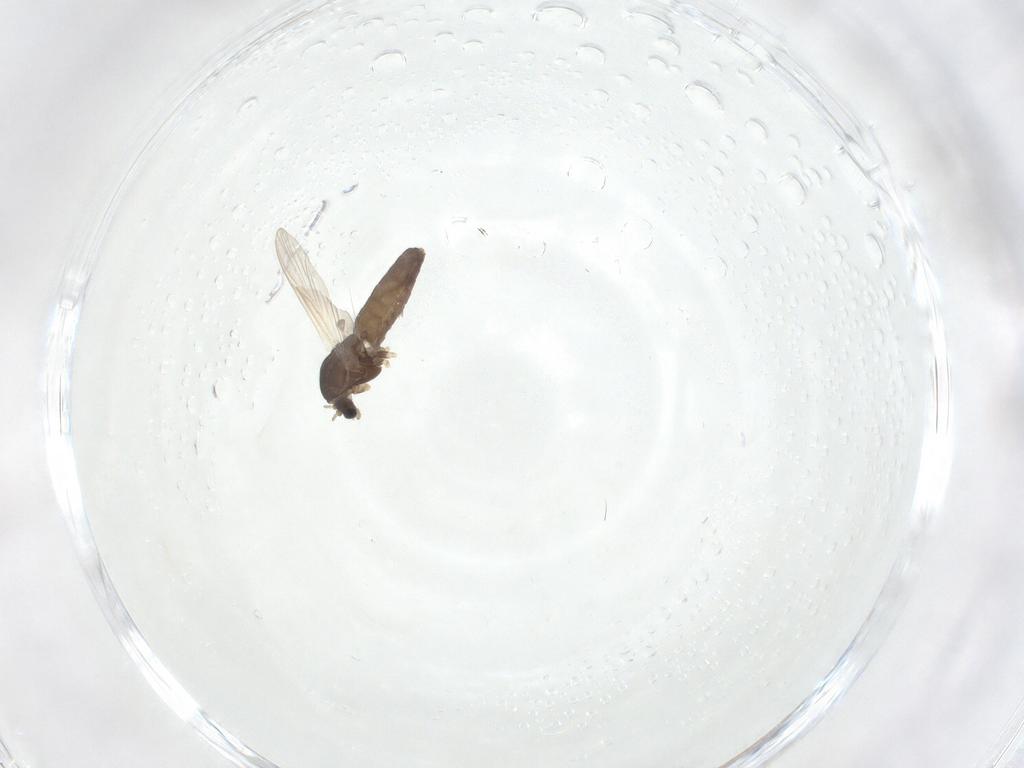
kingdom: Animalia
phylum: Arthropoda
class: Insecta
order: Diptera
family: Chironomidae
